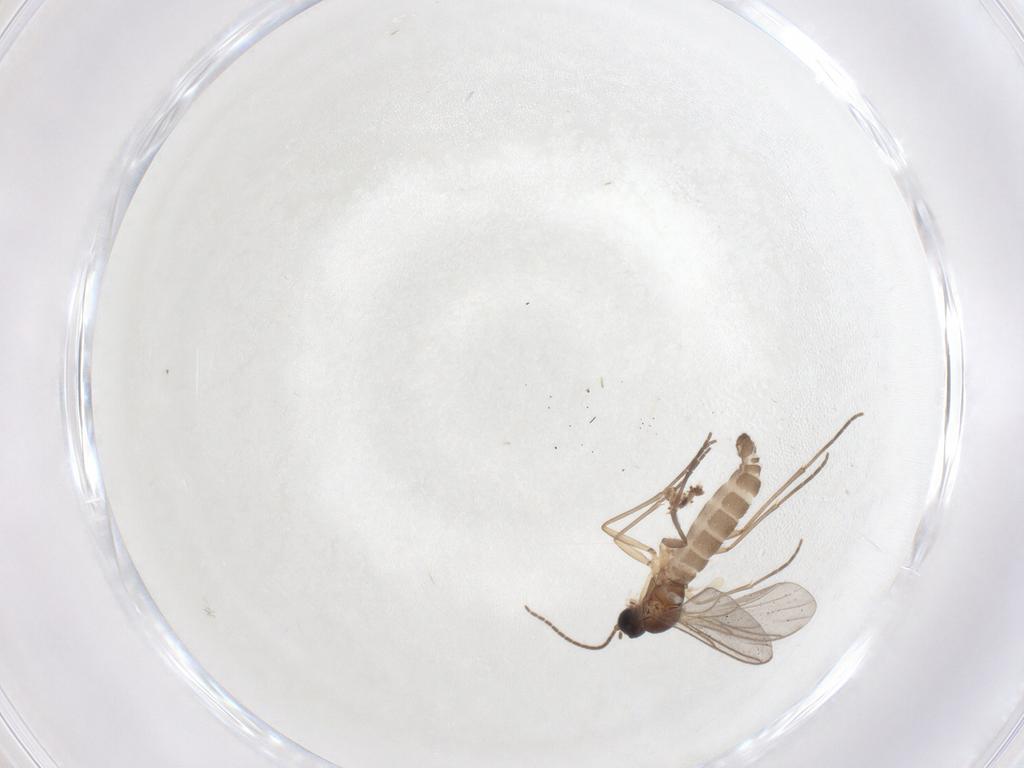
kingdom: Animalia
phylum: Arthropoda
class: Insecta
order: Diptera
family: Sciaridae
